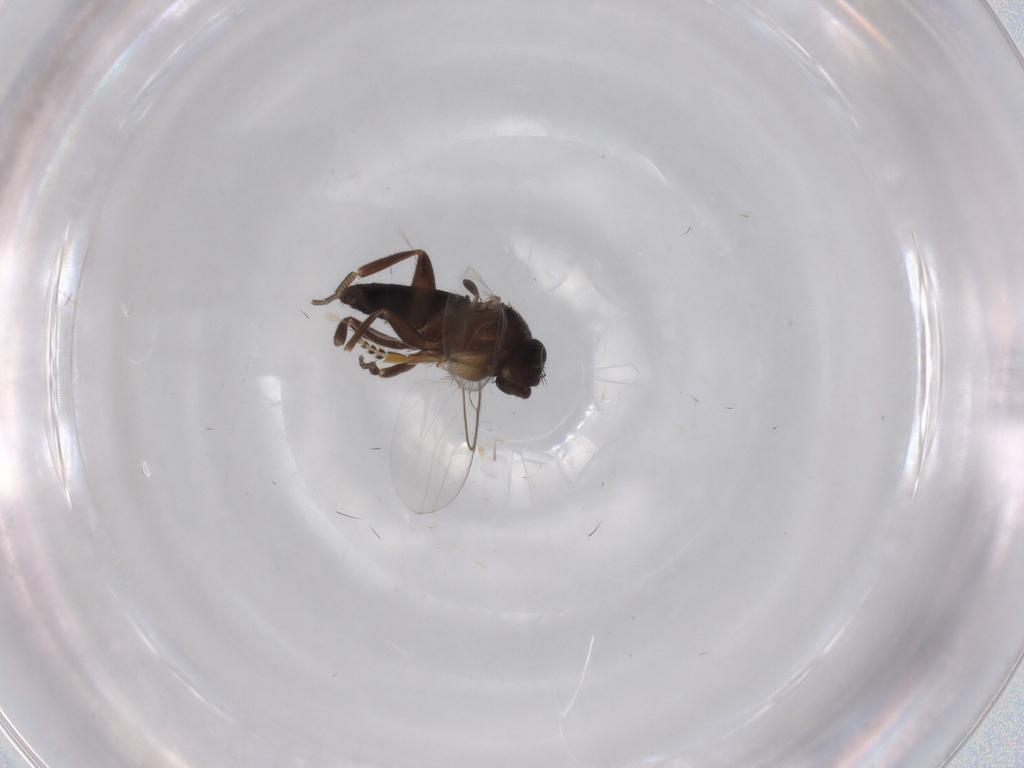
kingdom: Animalia
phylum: Arthropoda
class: Insecta
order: Diptera
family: Phoridae
